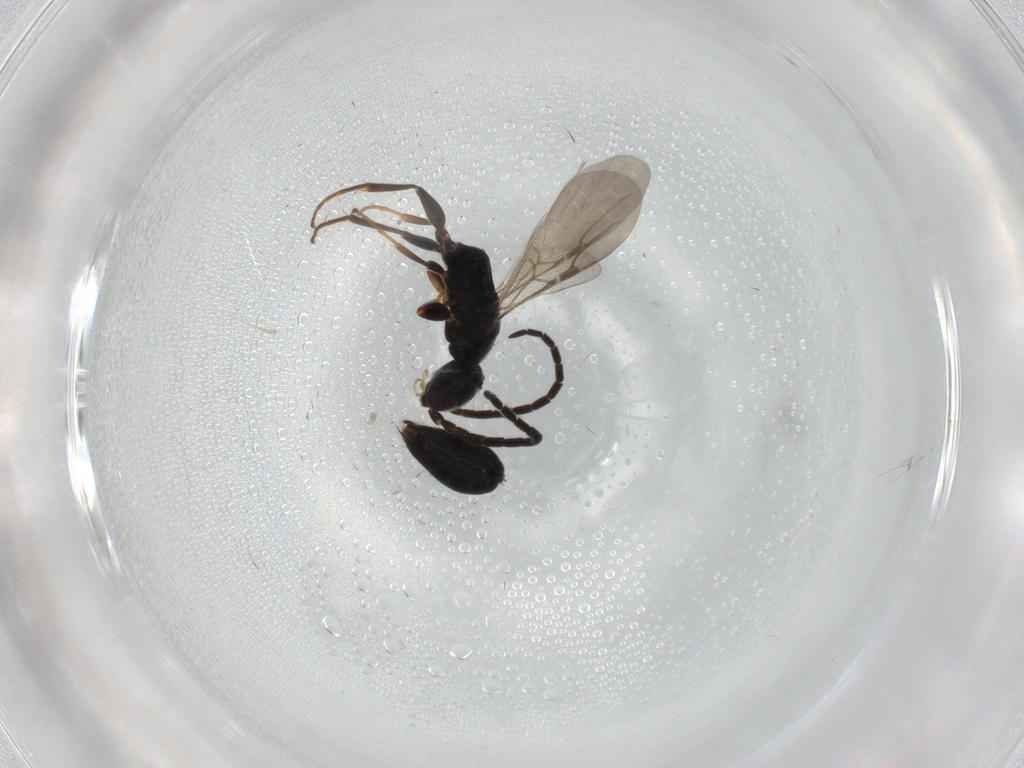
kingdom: Animalia
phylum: Arthropoda
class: Insecta
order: Hymenoptera
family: Bethylidae
